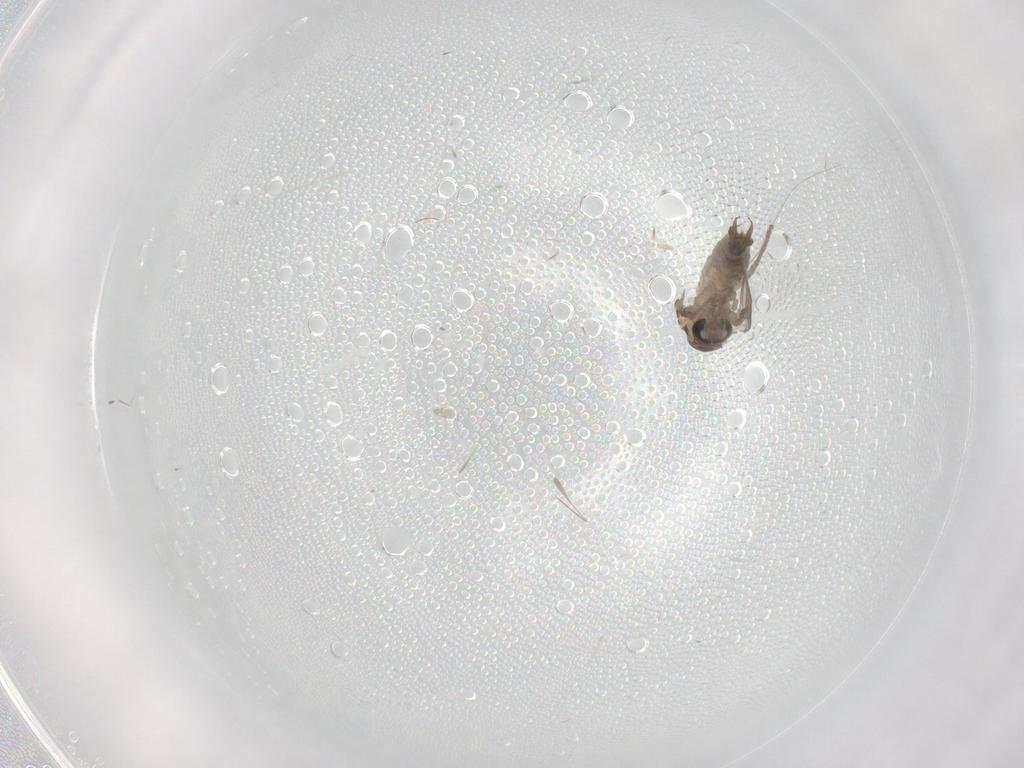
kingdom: Animalia
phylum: Arthropoda
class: Insecta
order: Diptera
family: Psychodidae
